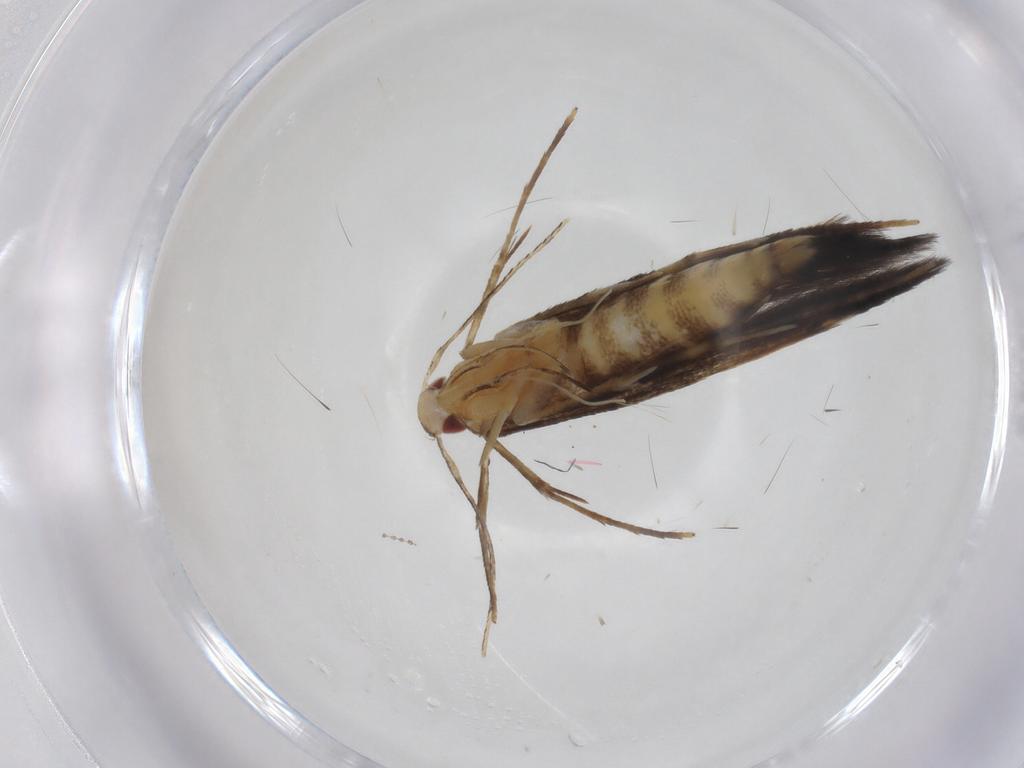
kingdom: Animalia
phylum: Arthropoda
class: Insecta
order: Lepidoptera
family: Cosmopterigidae
